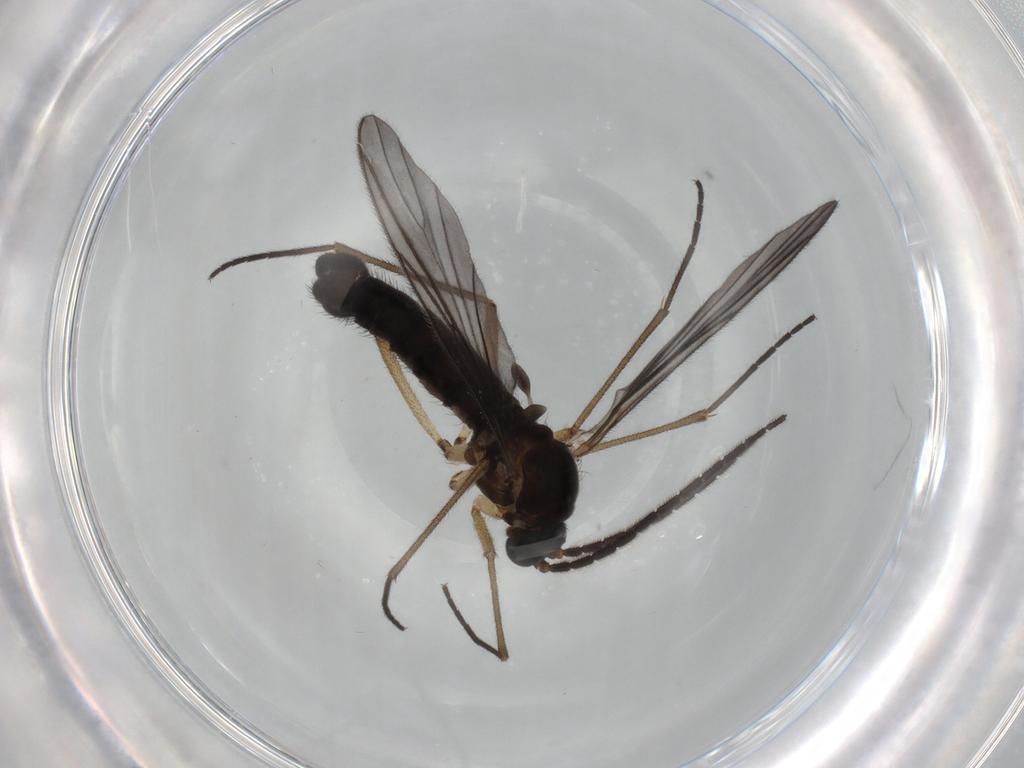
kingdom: Animalia
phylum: Arthropoda
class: Insecta
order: Diptera
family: Sciaridae
